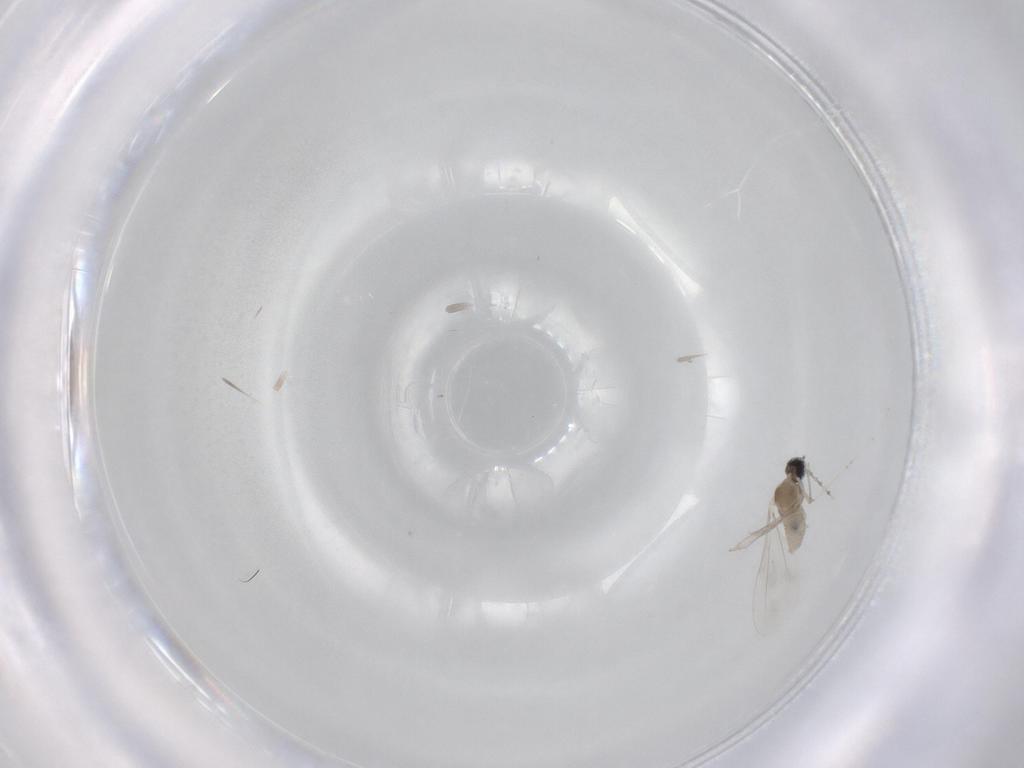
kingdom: Animalia
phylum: Arthropoda
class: Insecta
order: Diptera
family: Cecidomyiidae
